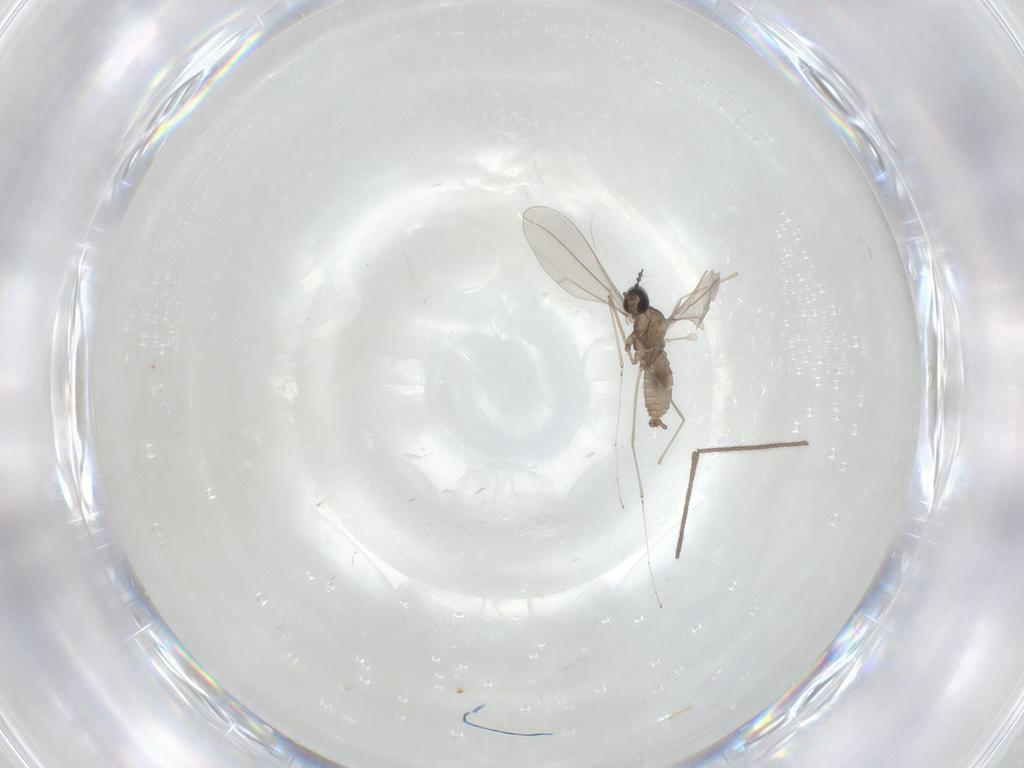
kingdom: Animalia
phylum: Arthropoda
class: Insecta
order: Diptera
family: Limoniidae
